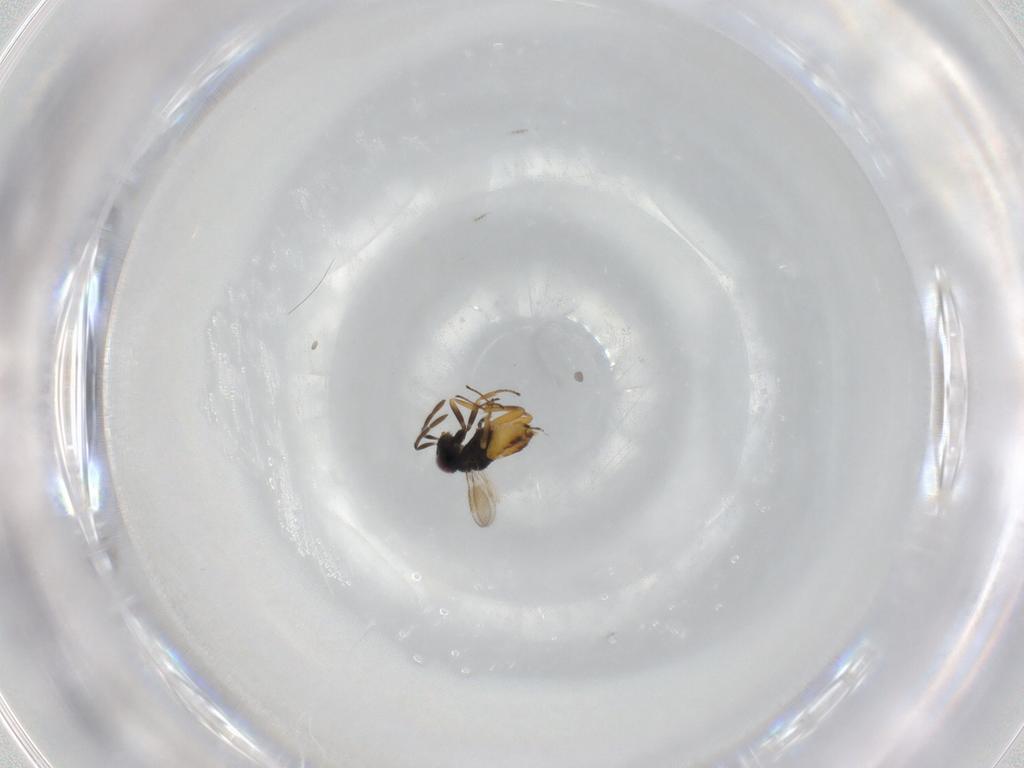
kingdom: Animalia
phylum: Arthropoda
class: Insecta
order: Hymenoptera
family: Aphelinidae
